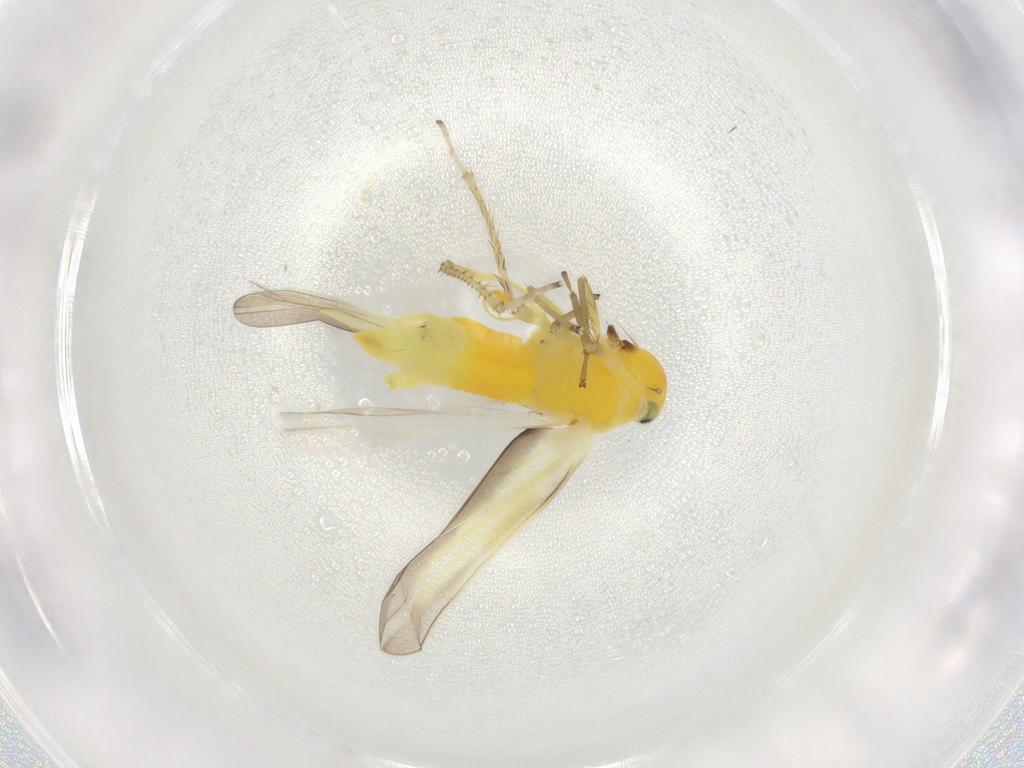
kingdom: Animalia
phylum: Arthropoda
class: Insecta
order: Hemiptera
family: Cicadellidae
